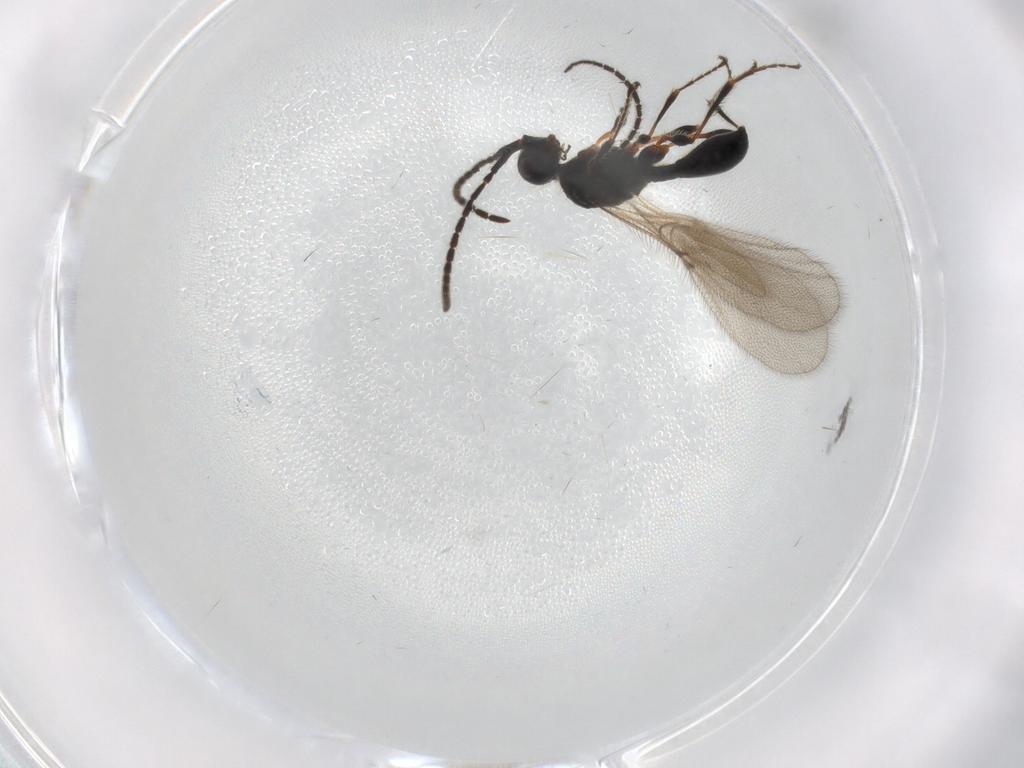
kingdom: Animalia
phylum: Arthropoda
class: Insecta
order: Hymenoptera
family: Diapriidae
